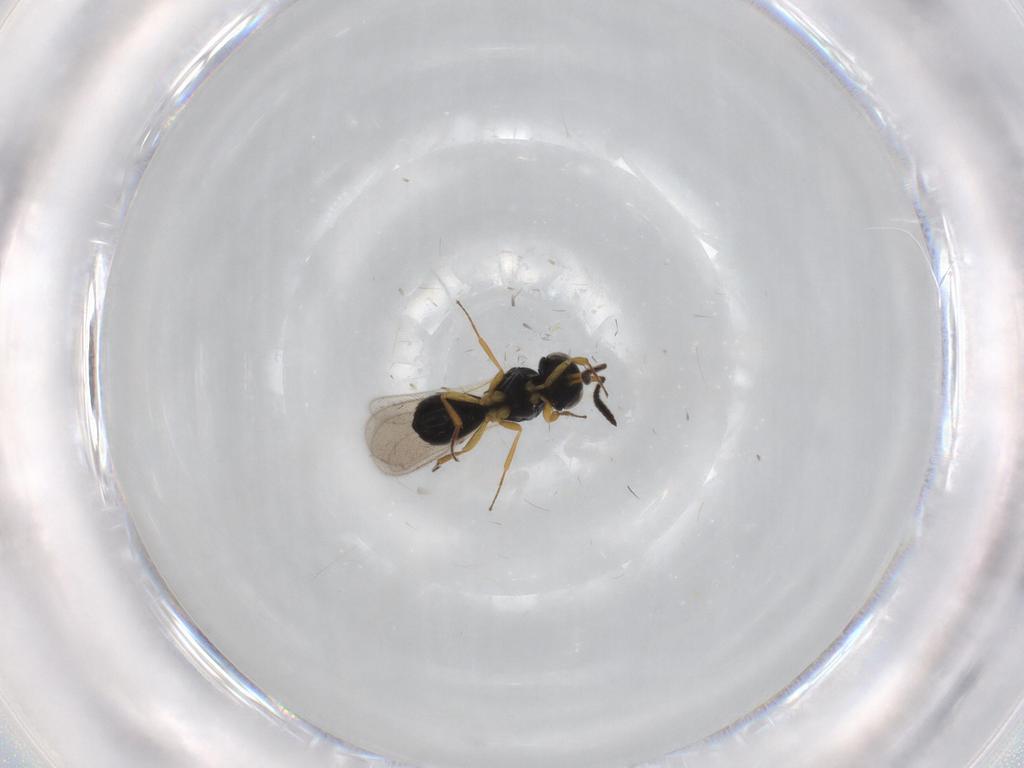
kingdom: Animalia
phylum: Arthropoda
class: Insecta
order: Hymenoptera
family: Scelionidae
